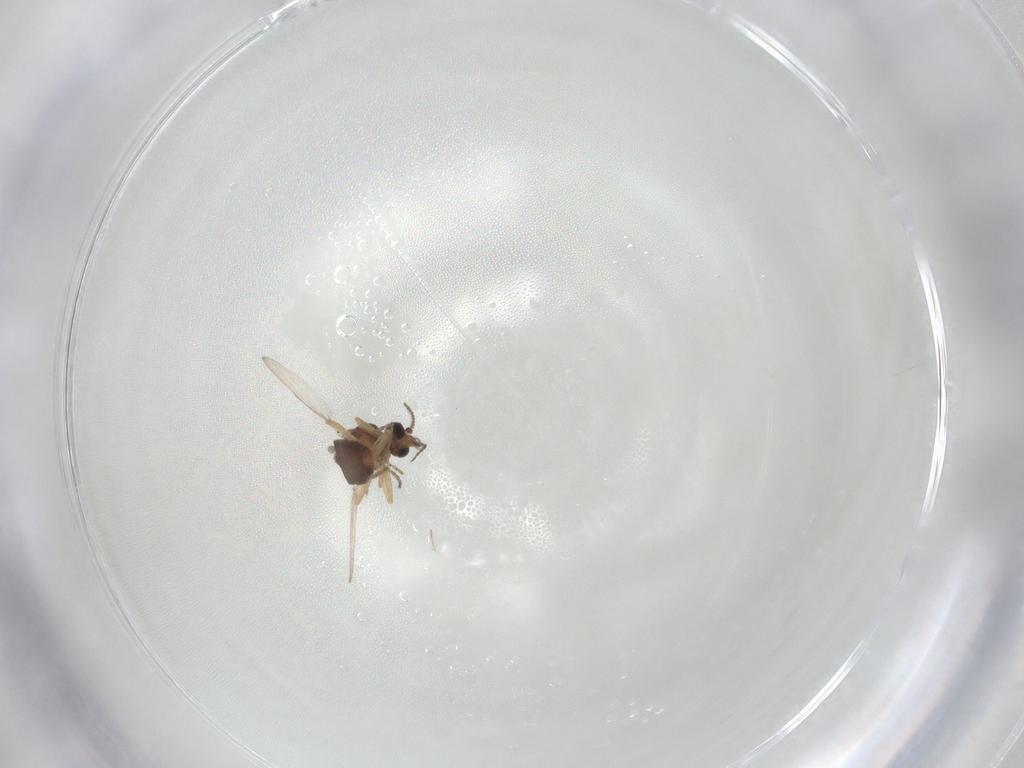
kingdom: Animalia
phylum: Arthropoda
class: Insecta
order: Diptera
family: Ceratopogonidae
